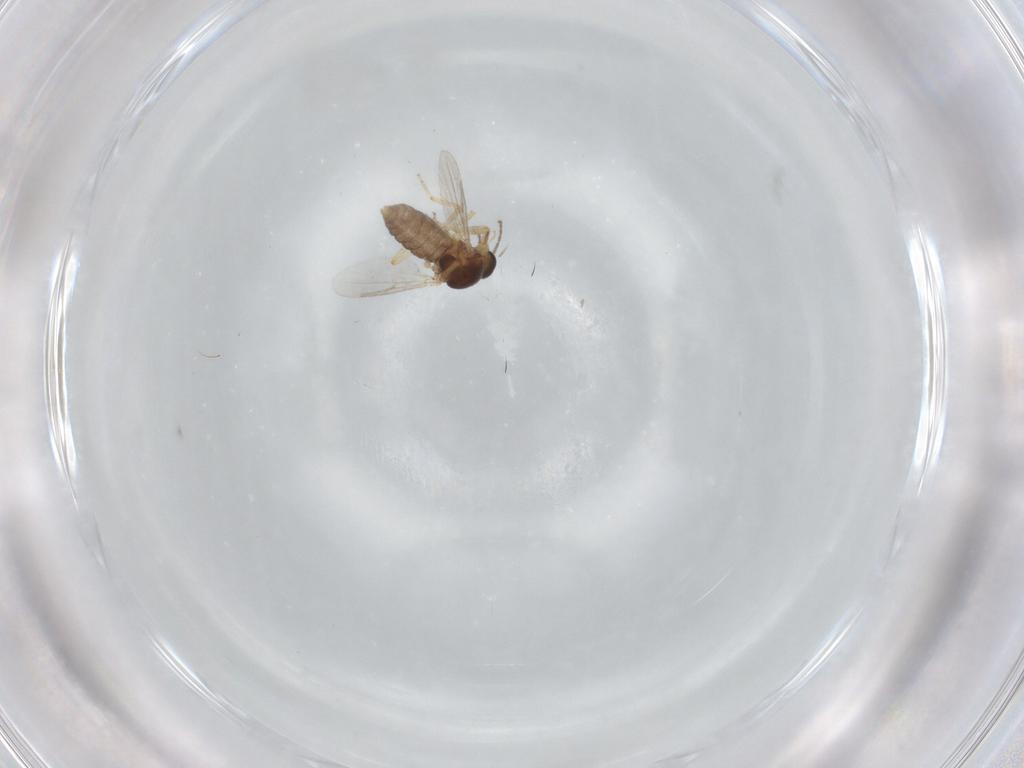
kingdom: Animalia
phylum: Arthropoda
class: Insecta
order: Diptera
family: Ceratopogonidae
